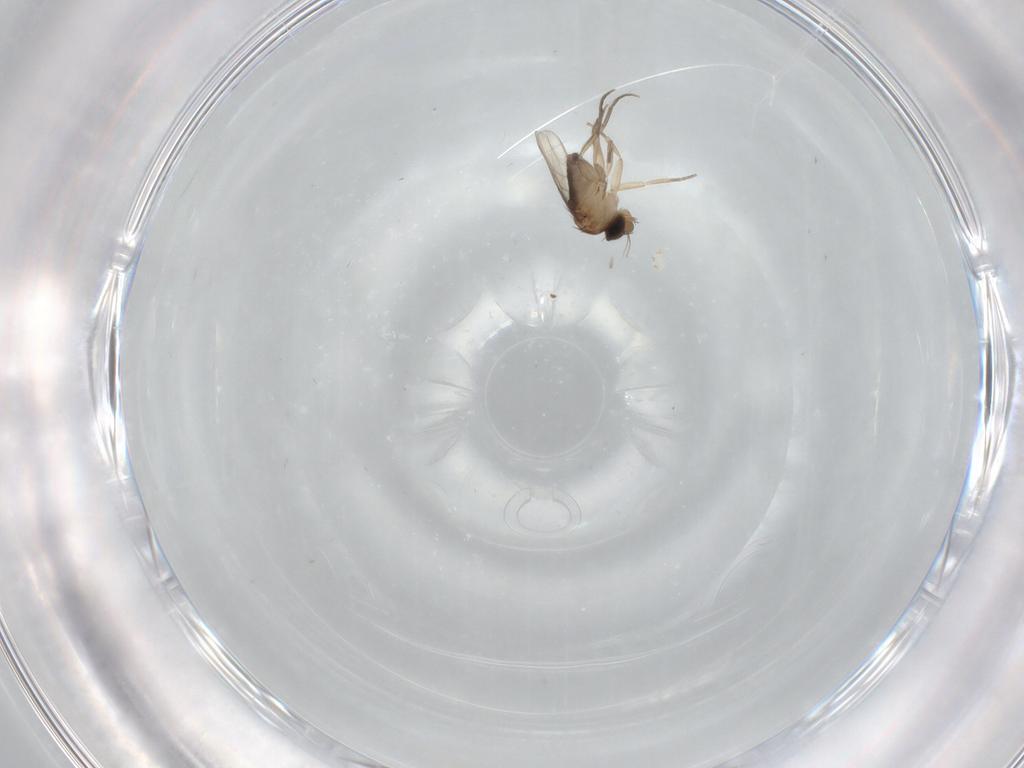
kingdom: Animalia
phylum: Arthropoda
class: Insecta
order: Diptera
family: Phoridae
